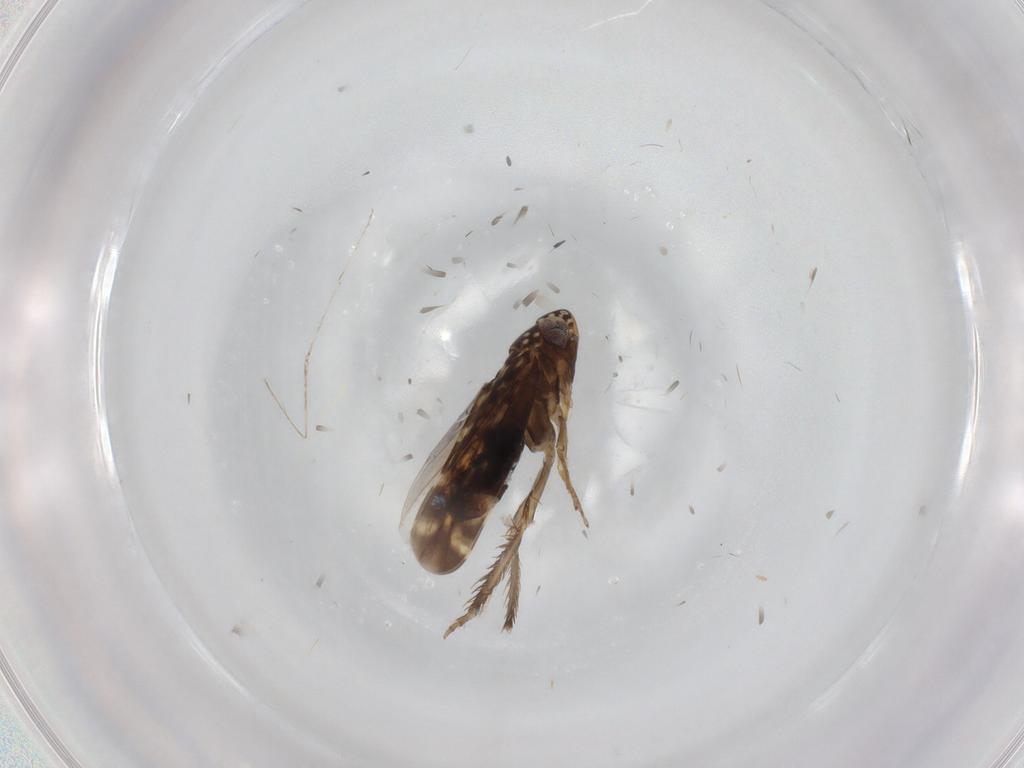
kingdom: Animalia
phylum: Arthropoda
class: Insecta
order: Hemiptera
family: Cicadellidae
